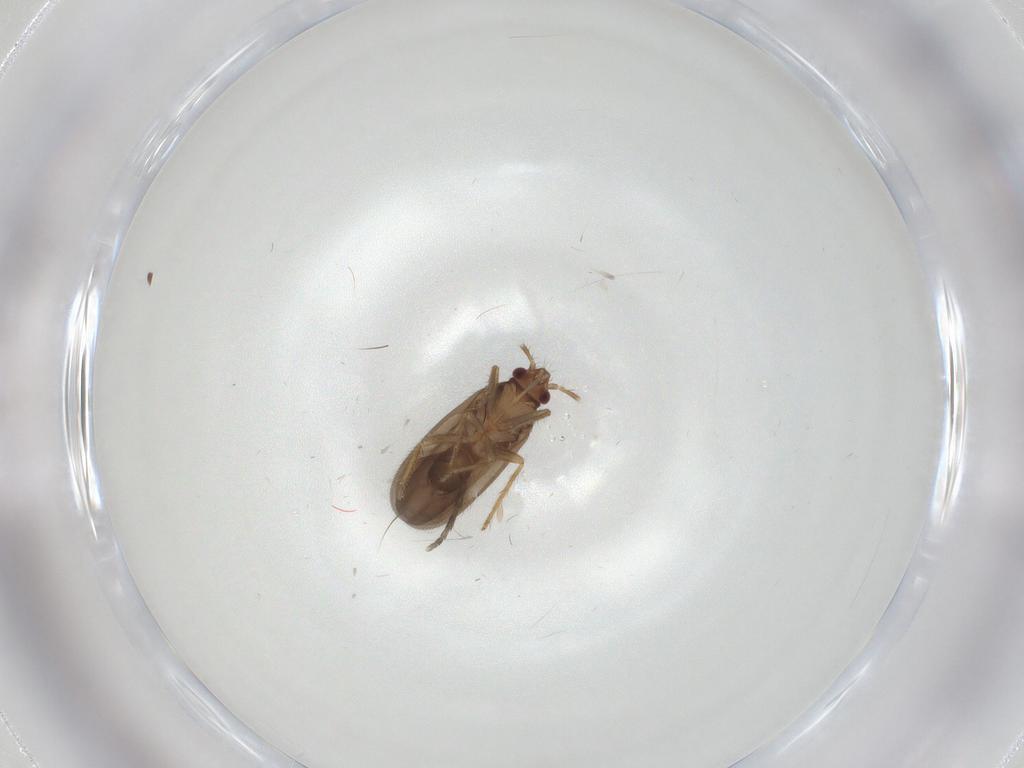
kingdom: Animalia
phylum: Arthropoda
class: Insecta
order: Hemiptera
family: Ceratocombidae
